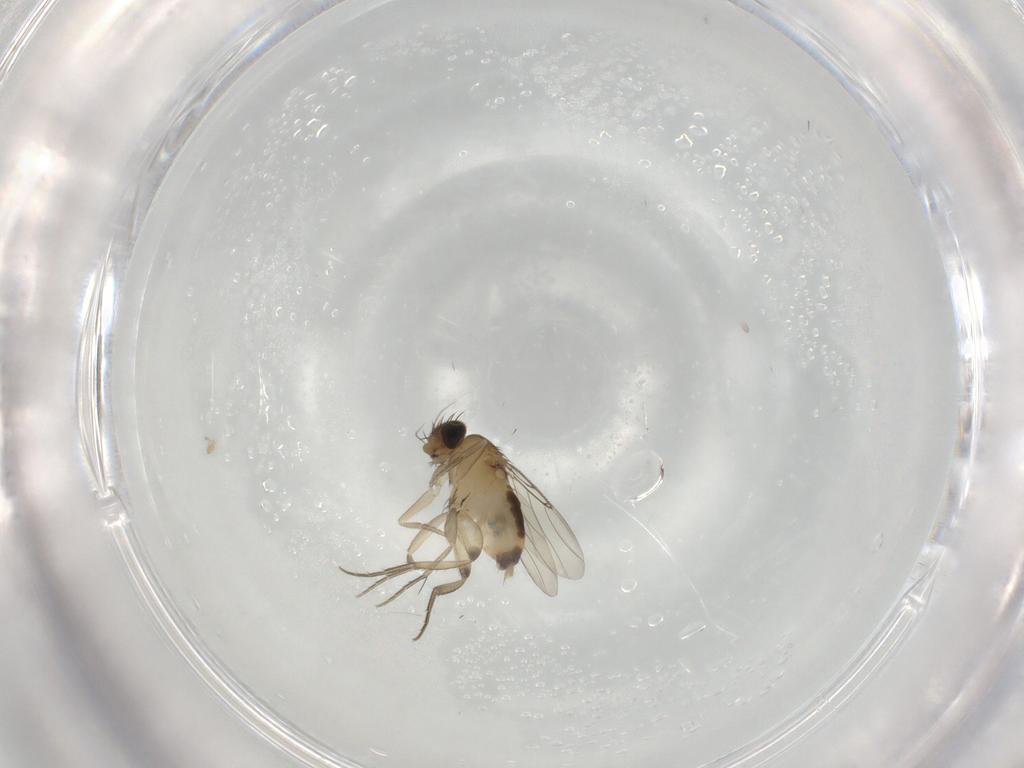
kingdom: Animalia
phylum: Arthropoda
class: Insecta
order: Diptera
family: Phoridae
